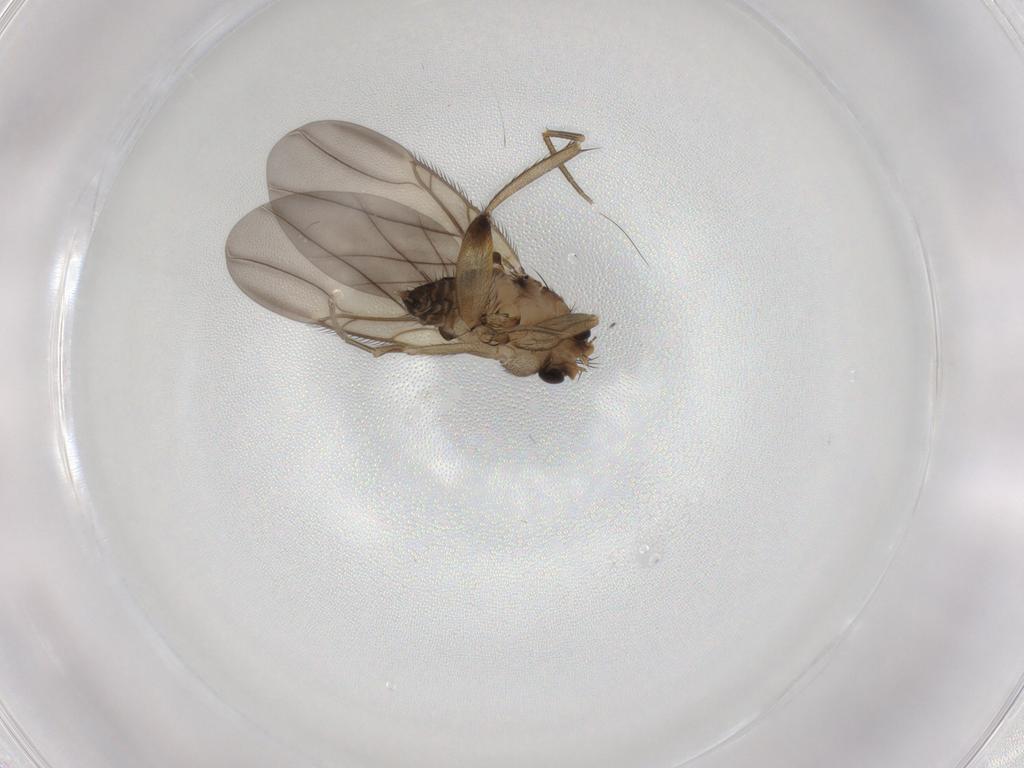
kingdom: Animalia
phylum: Arthropoda
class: Insecta
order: Diptera
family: Phoridae
